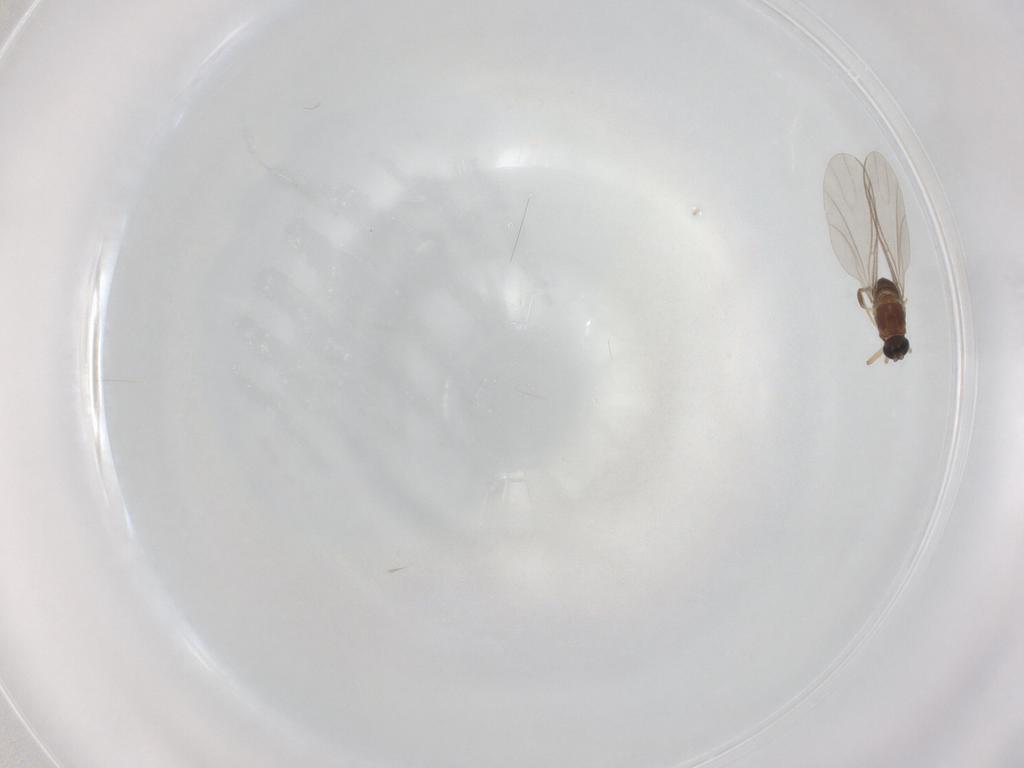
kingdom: Animalia
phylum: Arthropoda
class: Insecta
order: Diptera
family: Sciaridae
